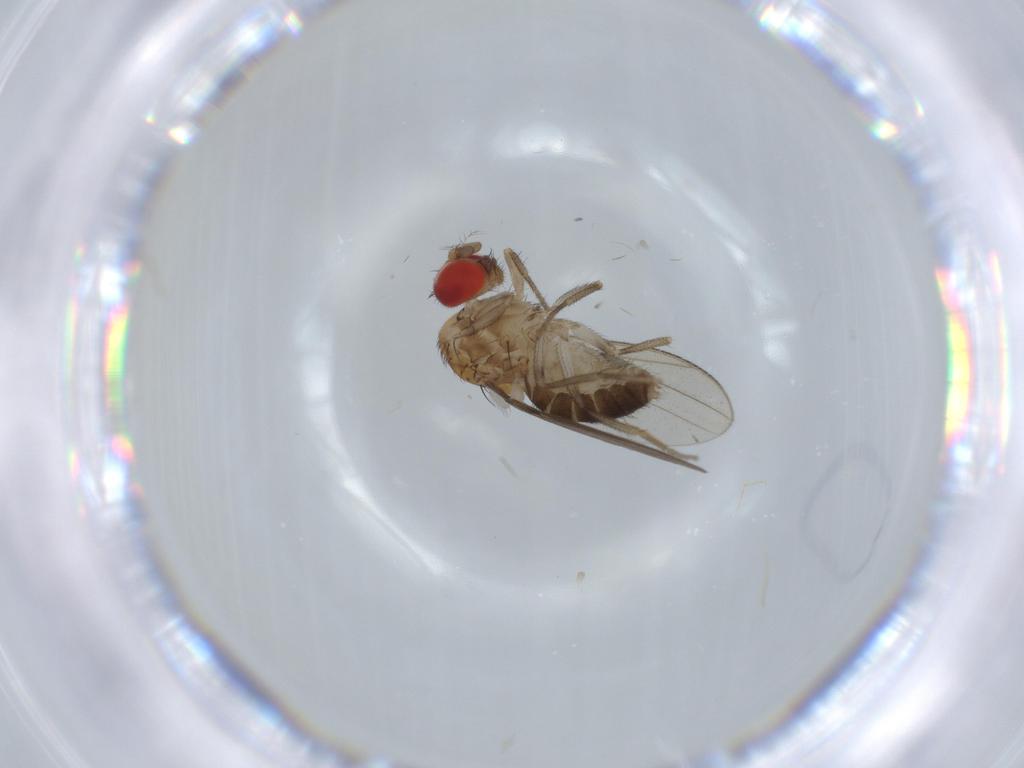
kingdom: Animalia
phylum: Arthropoda
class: Insecta
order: Diptera
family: Drosophilidae
